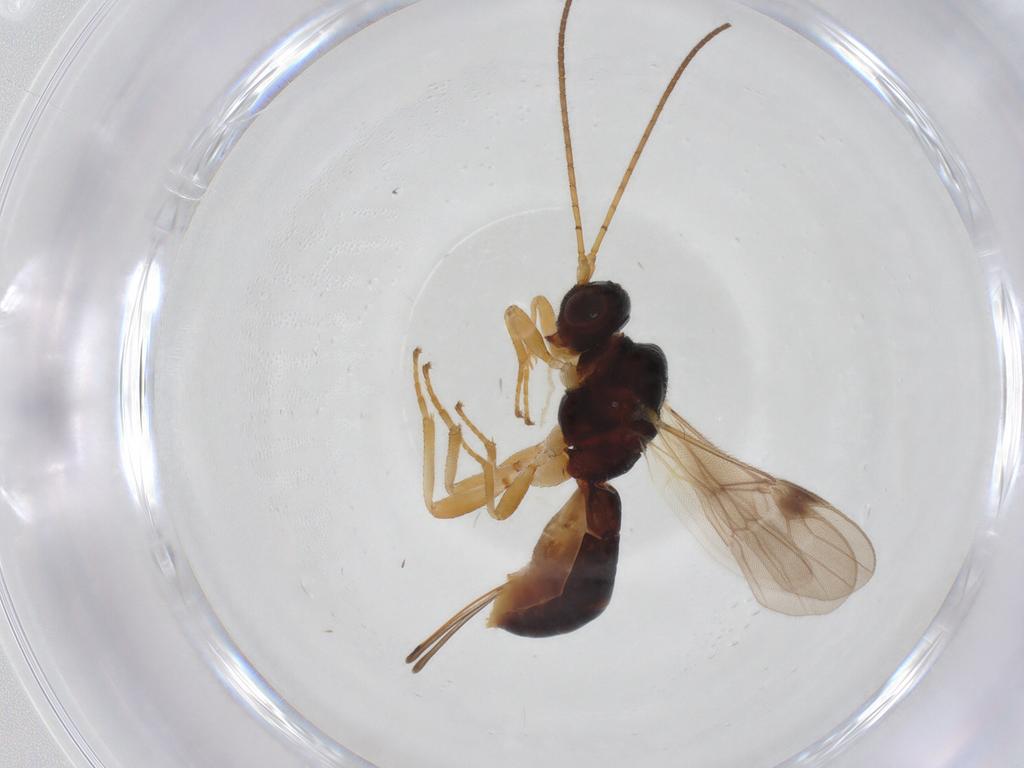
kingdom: Animalia
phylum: Arthropoda
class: Insecta
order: Hymenoptera
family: Braconidae
